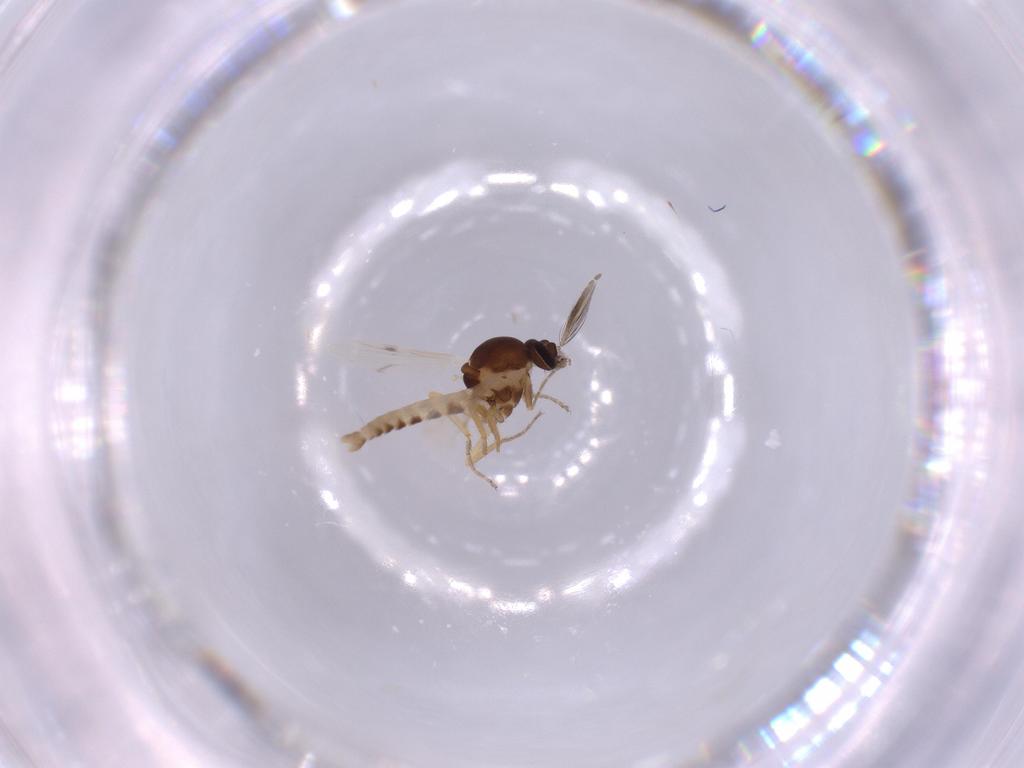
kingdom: Animalia
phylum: Arthropoda
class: Insecta
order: Diptera
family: Ceratopogonidae
